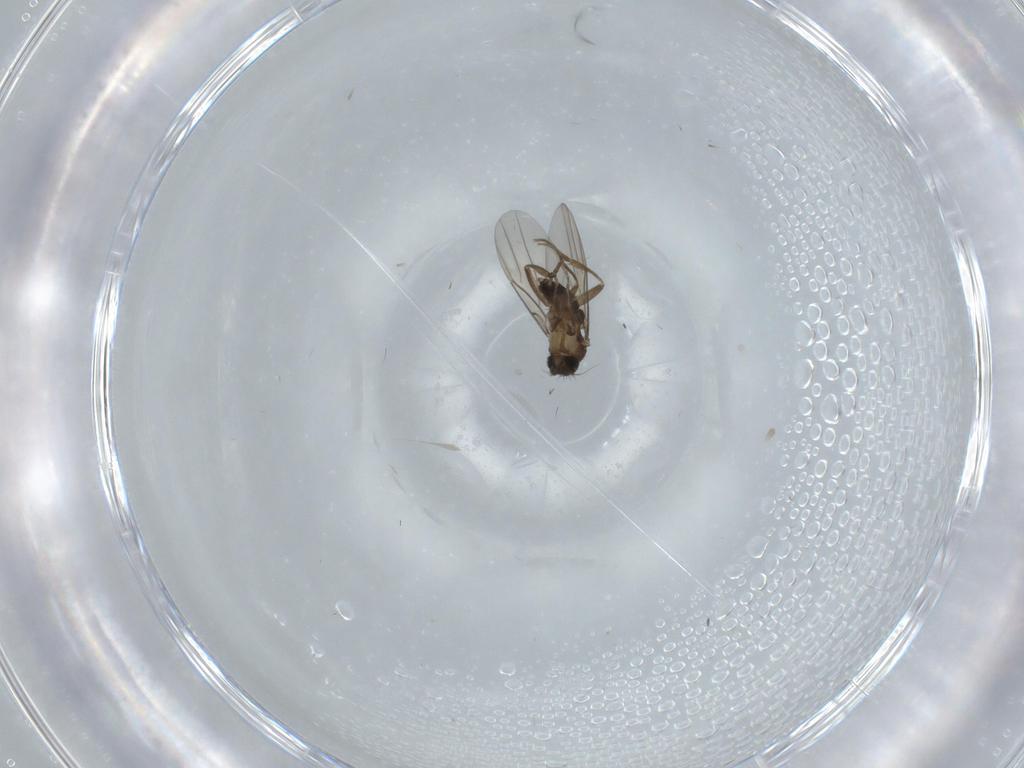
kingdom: Animalia
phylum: Arthropoda
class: Insecta
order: Diptera
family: Phoridae
